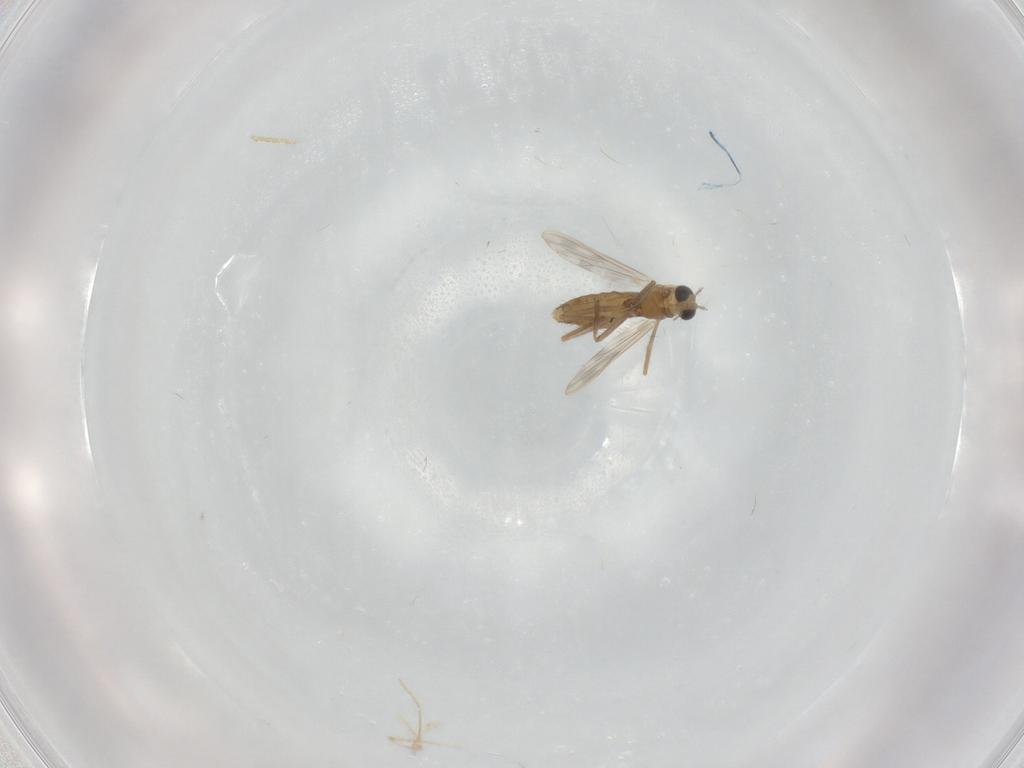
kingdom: Animalia
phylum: Arthropoda
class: Insecta
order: Diptera
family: Chironomidae
